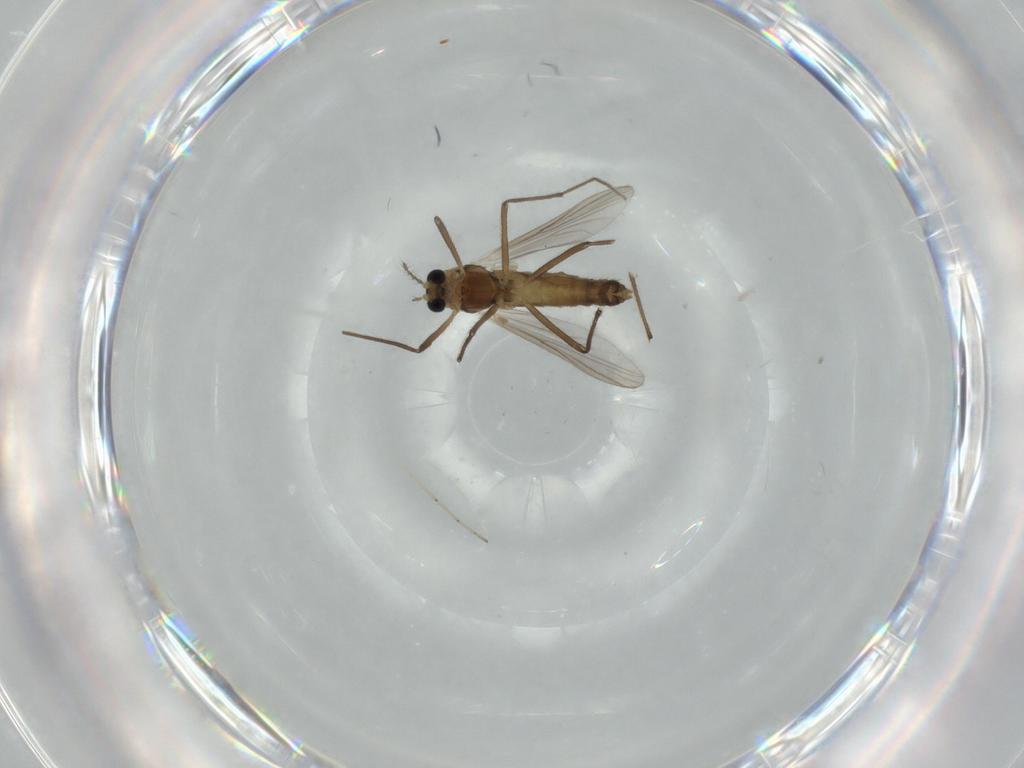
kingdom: Animalia
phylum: Arthropoda
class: Insecta
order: Diptera
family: Chironomidae
